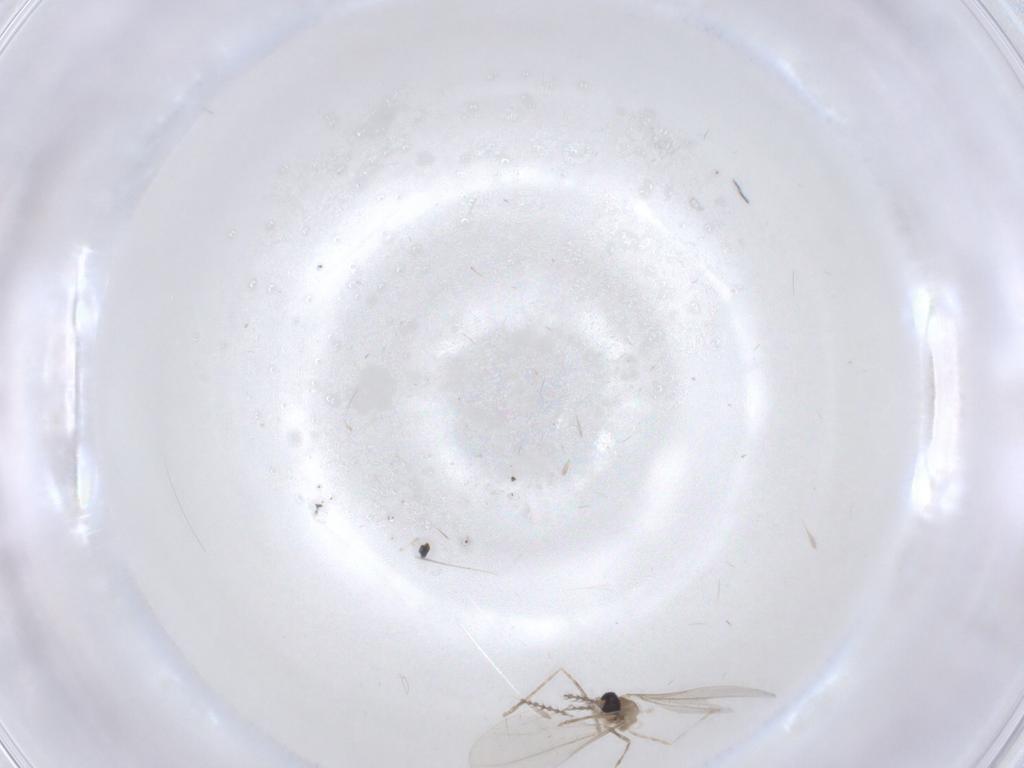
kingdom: Animalia
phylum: Arthropoda
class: Insecta
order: Diptera
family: Cecidomyiidae
